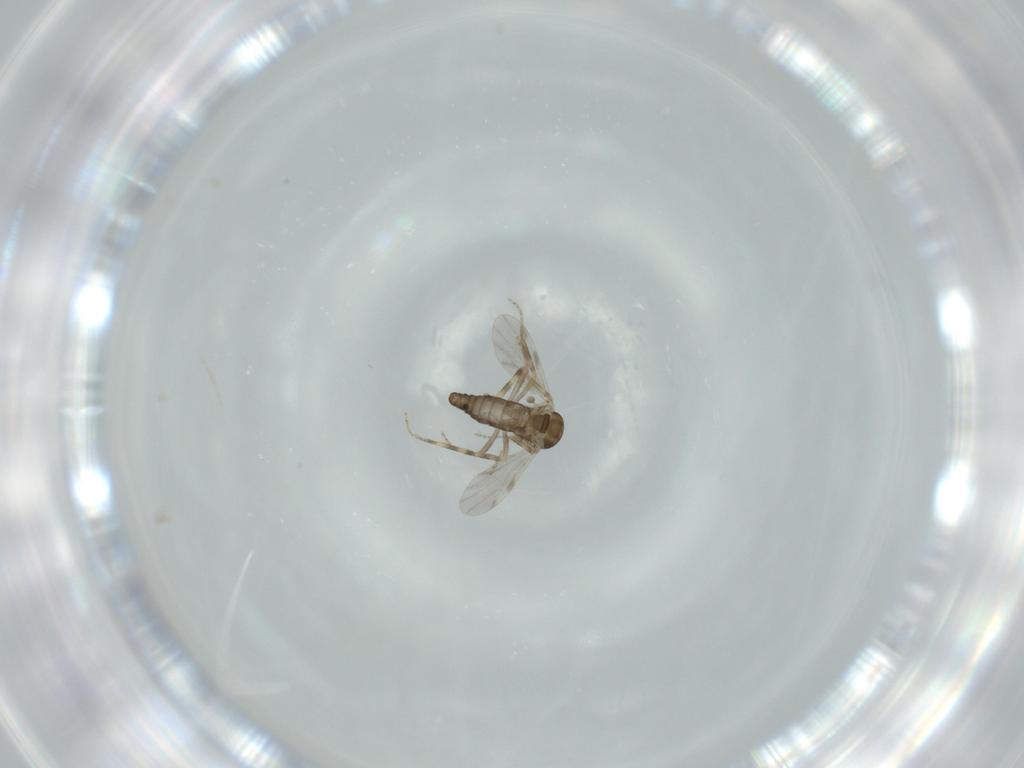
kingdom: Animalia
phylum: Arthropoda
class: Insecta
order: Diptera
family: Ceratopogonidae
